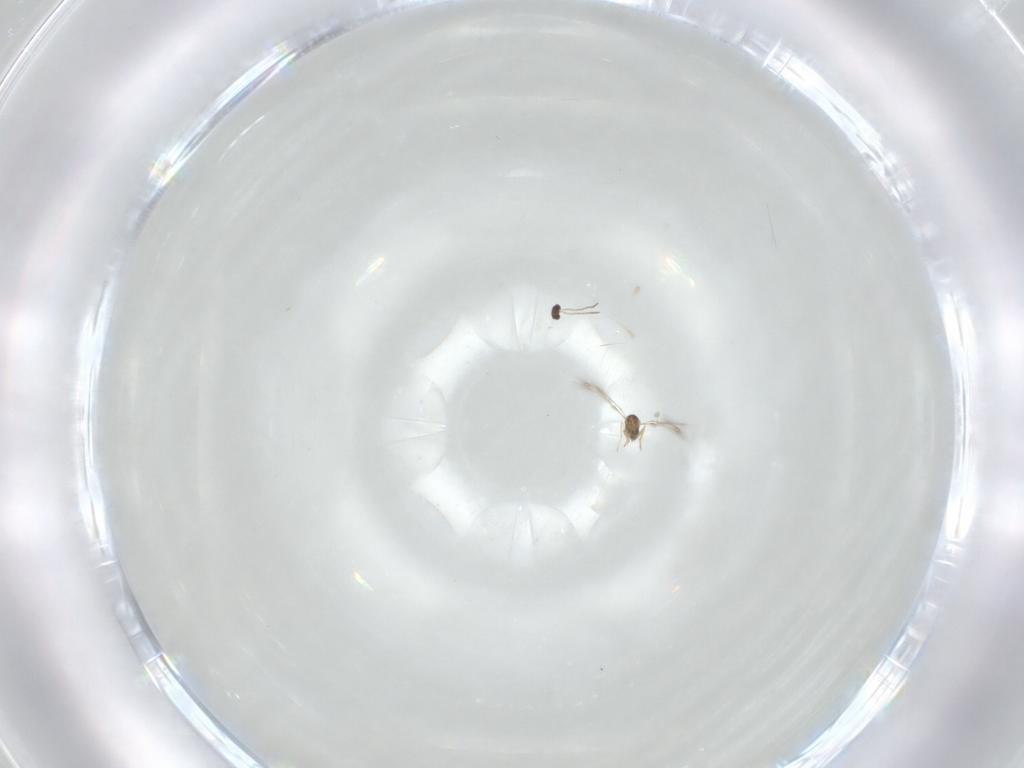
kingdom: Animalia
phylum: Arthropoda
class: Insecta
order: Hymenoptera
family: Mymaridae
